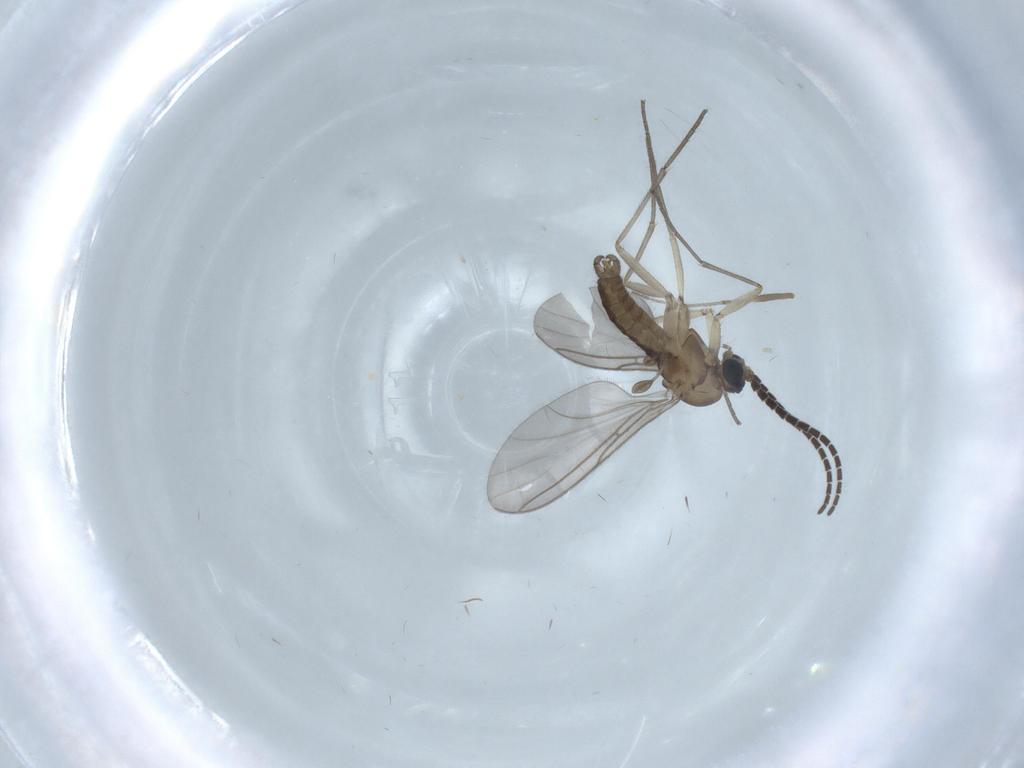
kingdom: Animalia
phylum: Arthropoda
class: Insecta
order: Diptera
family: Sciaridae
